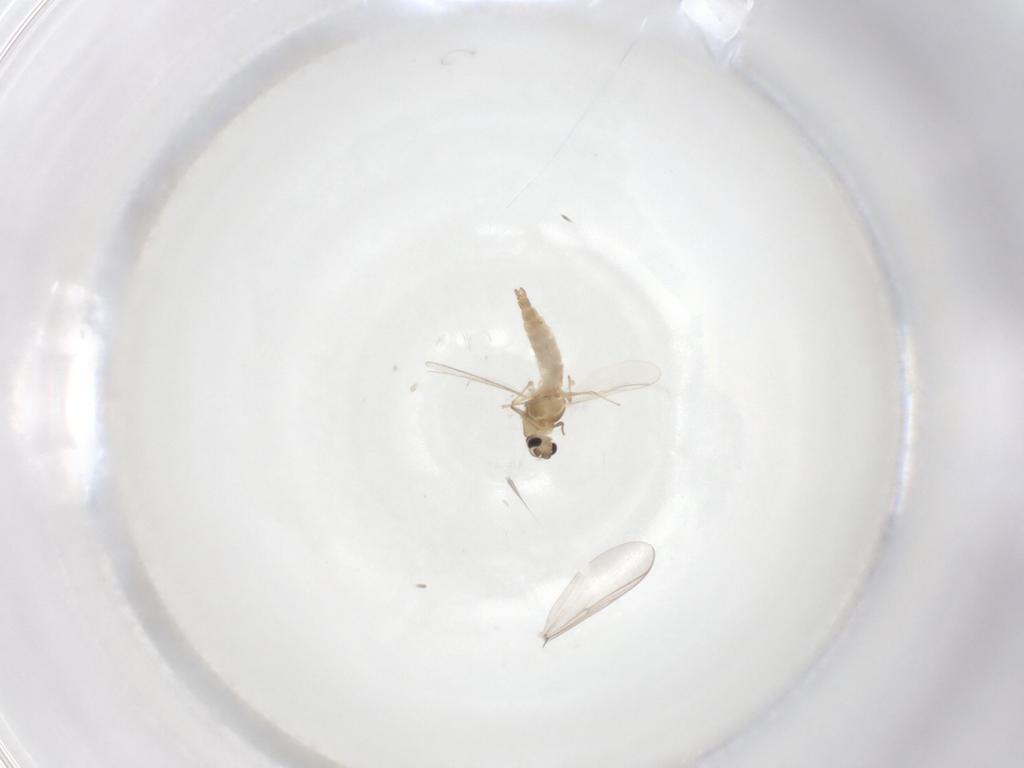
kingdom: Animalia
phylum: Arthropoda
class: Insecta
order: Diptera
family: Chironomidae
